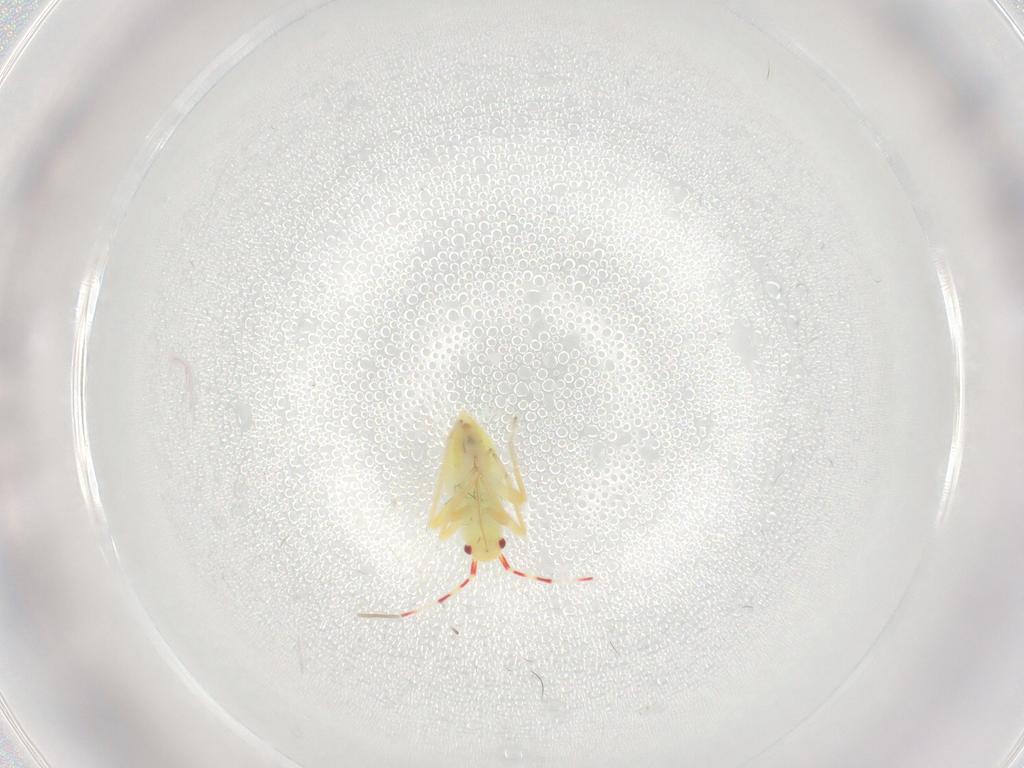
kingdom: Animalia
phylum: Arthropoda
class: Insecta
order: Hemiptera
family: Miridae
